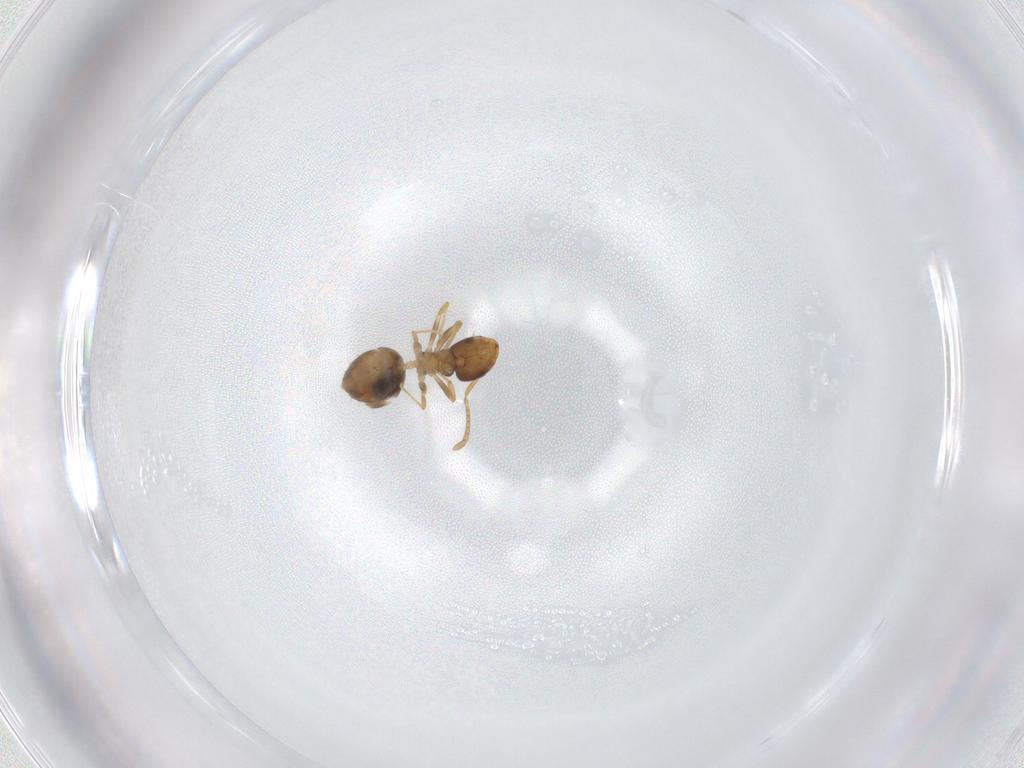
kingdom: Animalia
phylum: Arthropoda
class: Insecta
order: Hymenoptera
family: Formicidae
